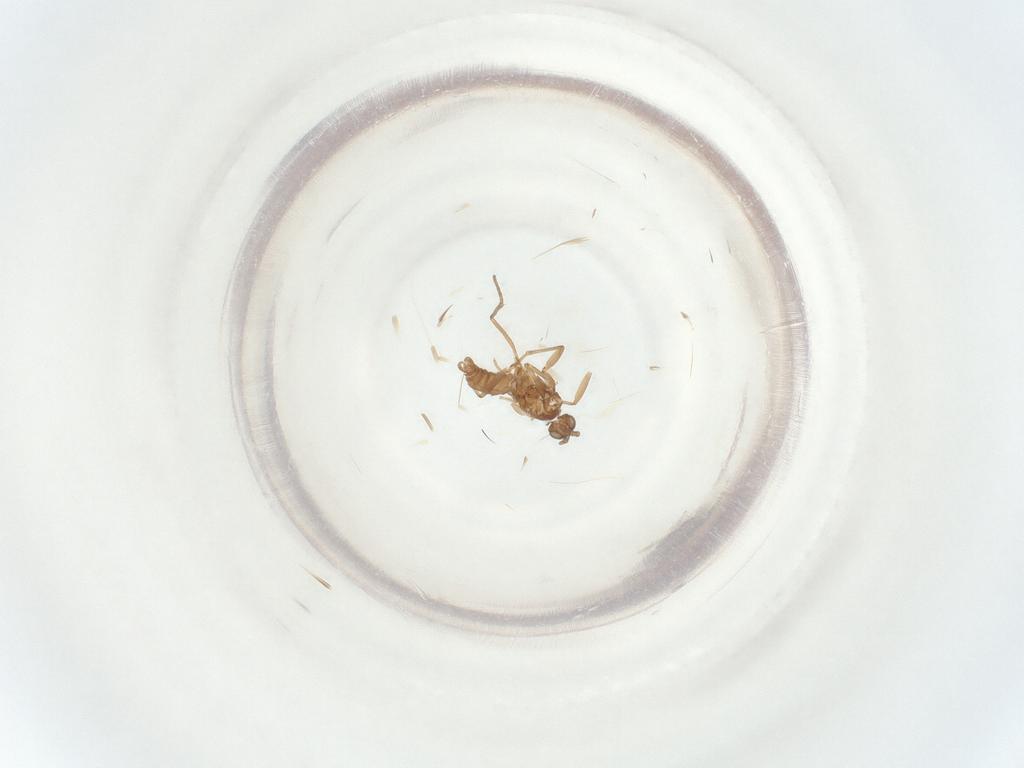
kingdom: Animalia
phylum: Arthropoda
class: Insecta
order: Diptera
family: Sciaridae
